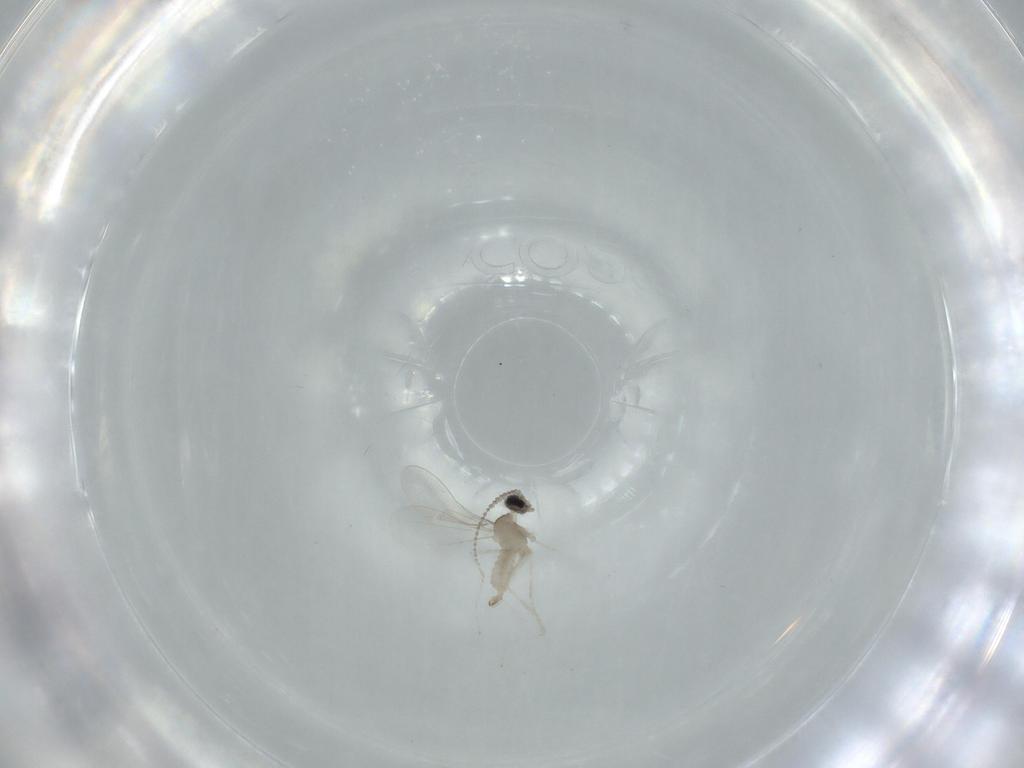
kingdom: Animalia
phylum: Arthropoda
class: Insecta
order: Diptera
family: Cecidomyiidae
